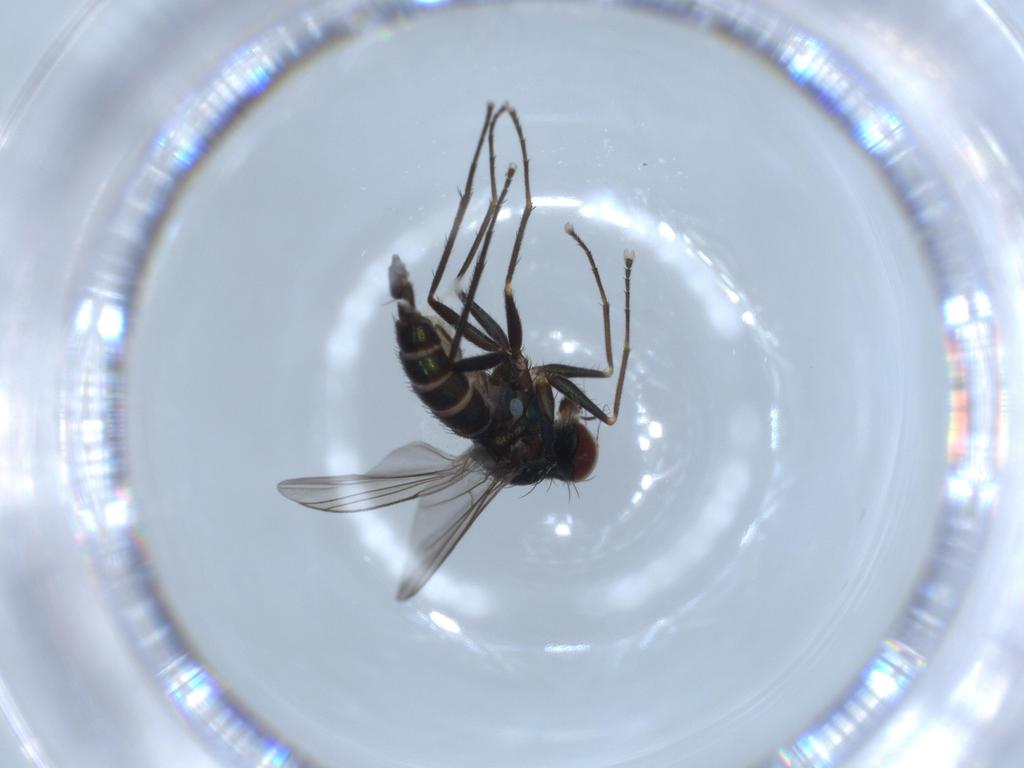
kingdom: Animalia
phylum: Arthropoda
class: Insecta
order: Diptera
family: Dolichopodidae
